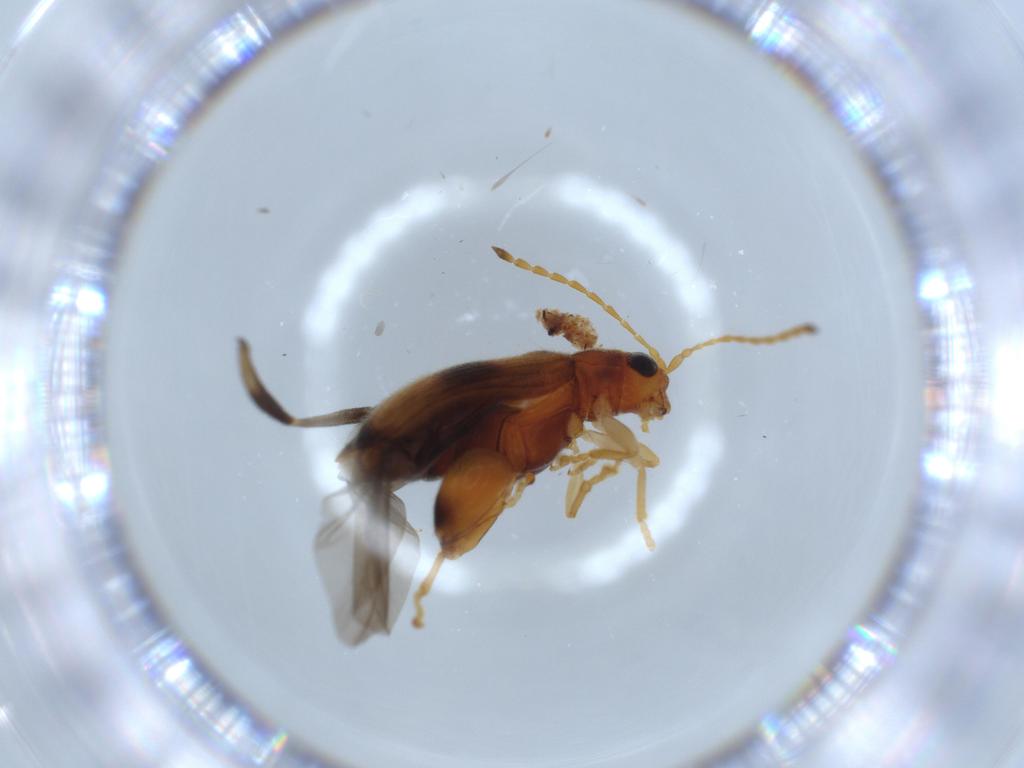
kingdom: Animalia
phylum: Arthropoda
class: Insecta
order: Coleoptera
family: Chrysomelidae
